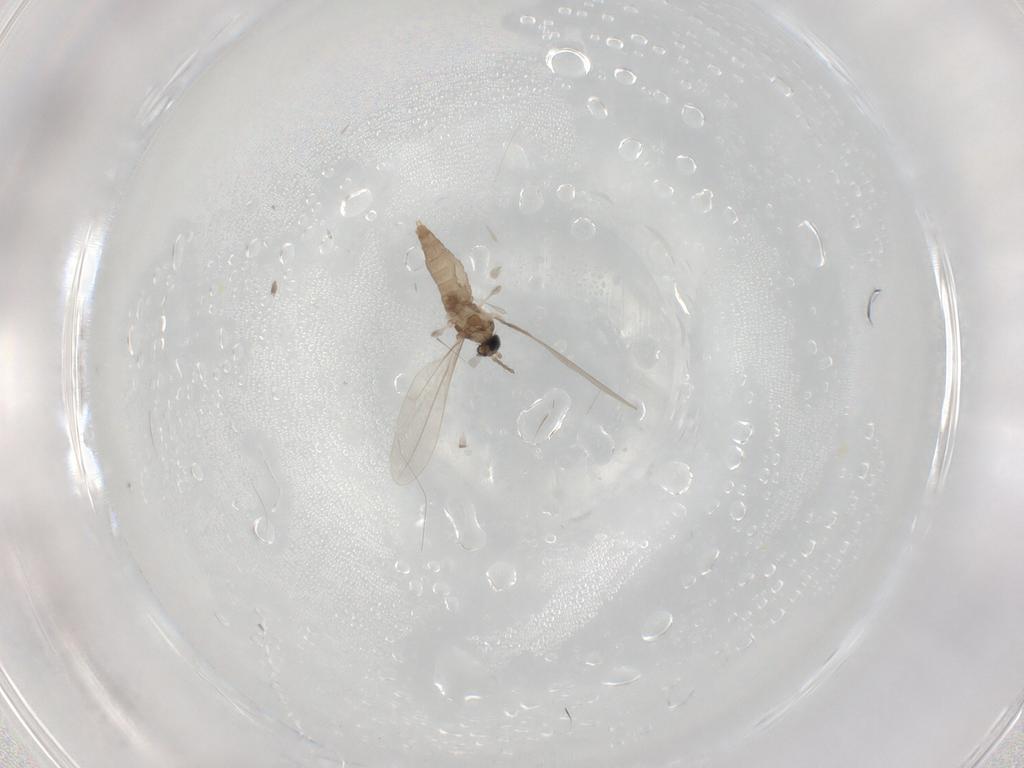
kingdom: Animalia
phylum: Arthropoda
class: Insecta
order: Diptera
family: Cecidomyiidae
